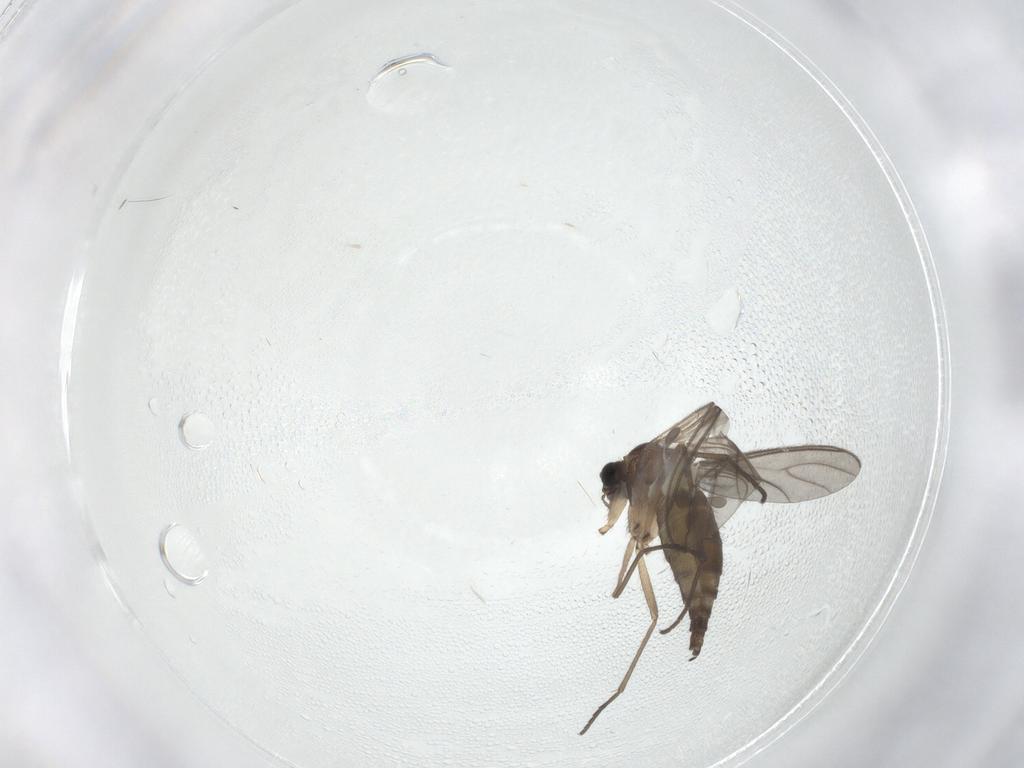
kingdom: Animalia
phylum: Arthropoda
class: Insecta
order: Diptera
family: Sciaridae
